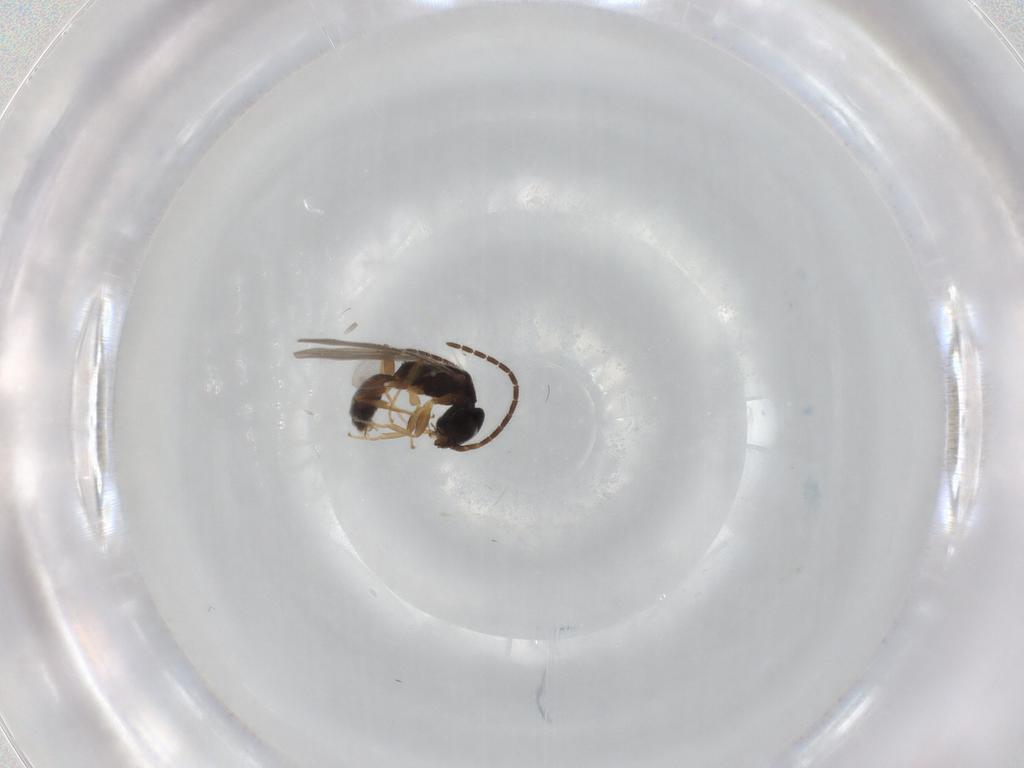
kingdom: Animalia
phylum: Arthropoda
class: Insecta
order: Hymenoptera
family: Bethylidae
